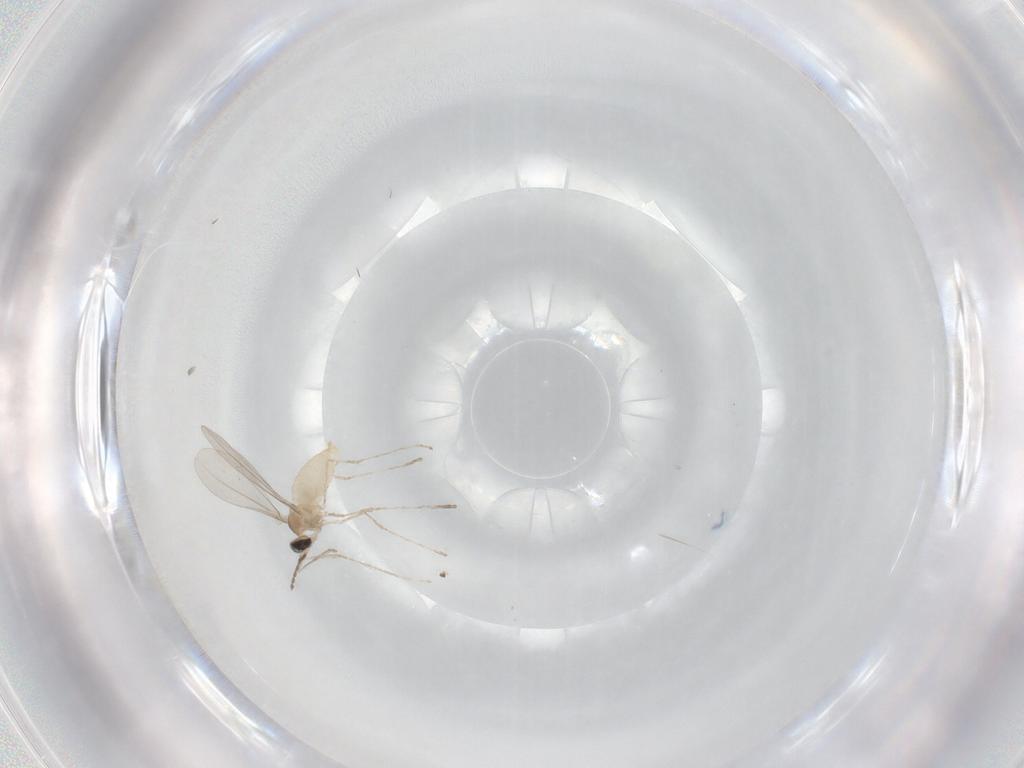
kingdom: Animalia
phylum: Arthropoda
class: Insecta
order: Diptera
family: Cecidomyiidae
